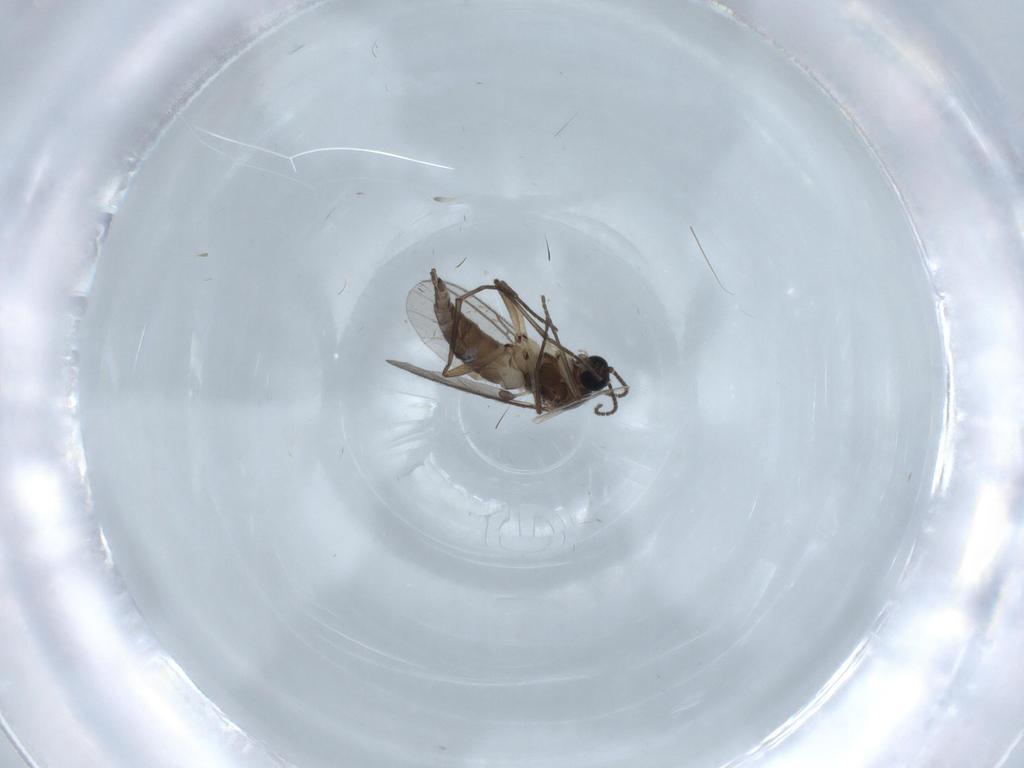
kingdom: Animalia
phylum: Arthropoda
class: Insecta
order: Diptera
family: Sciaridae
